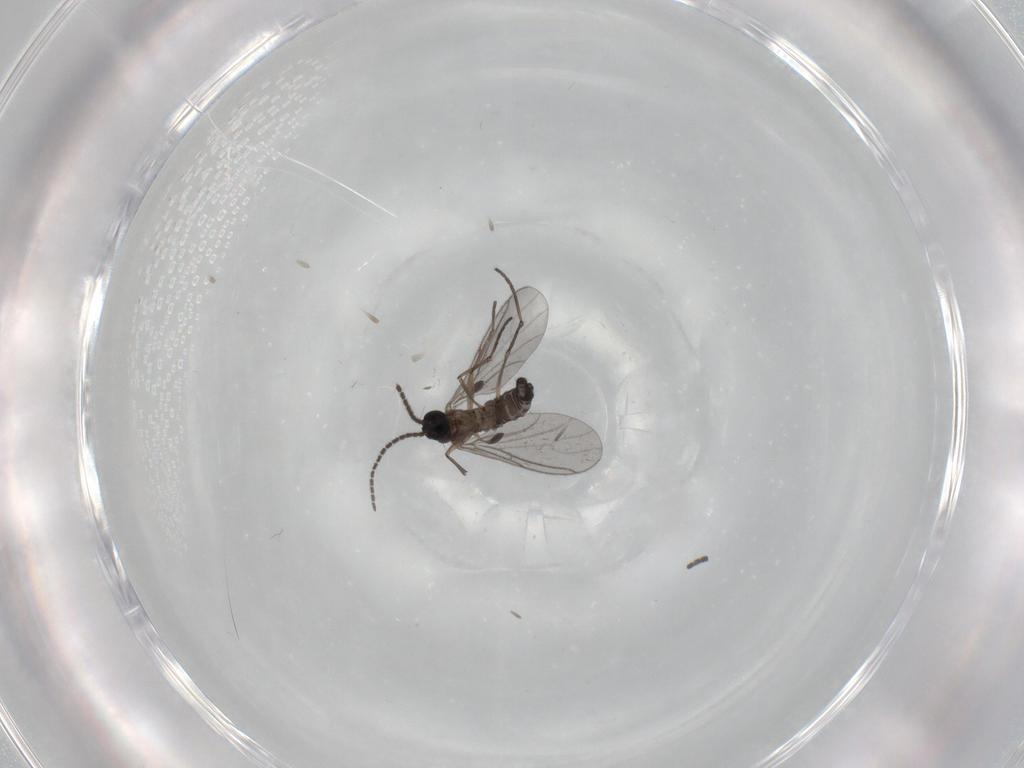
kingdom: Animalia
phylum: Arthropoda
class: Insecta
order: Diptera
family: Sciaridae
